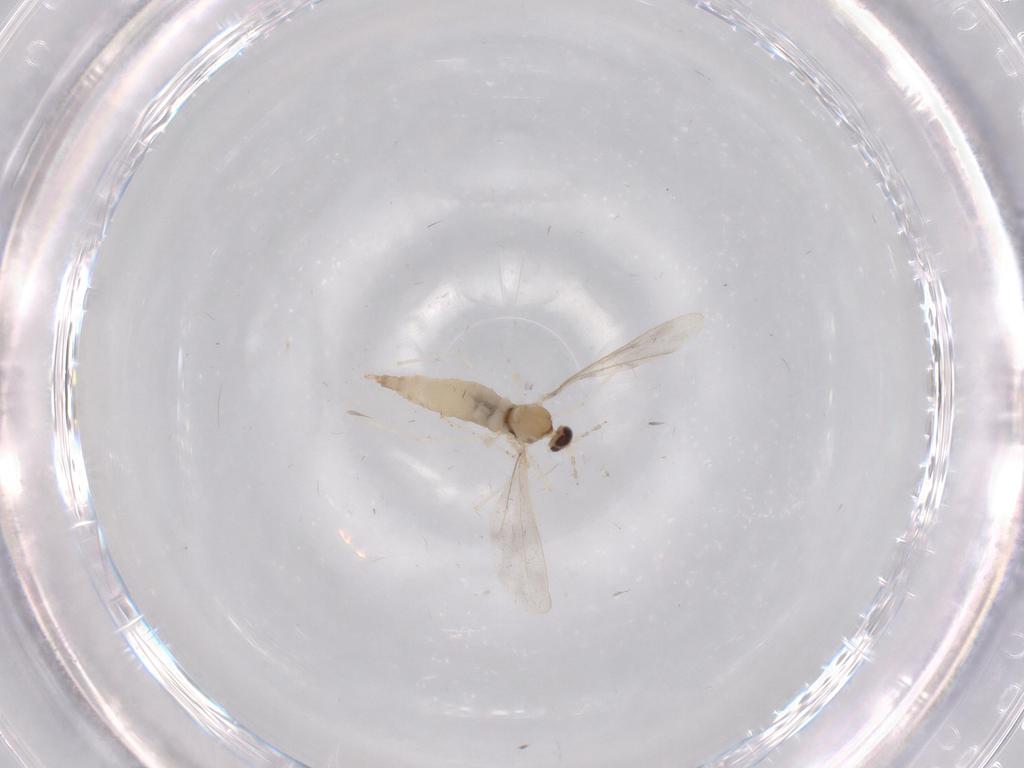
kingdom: Animalia
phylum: Arthropoda
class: Insecta
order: Diptera
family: Cecidomyiidae
